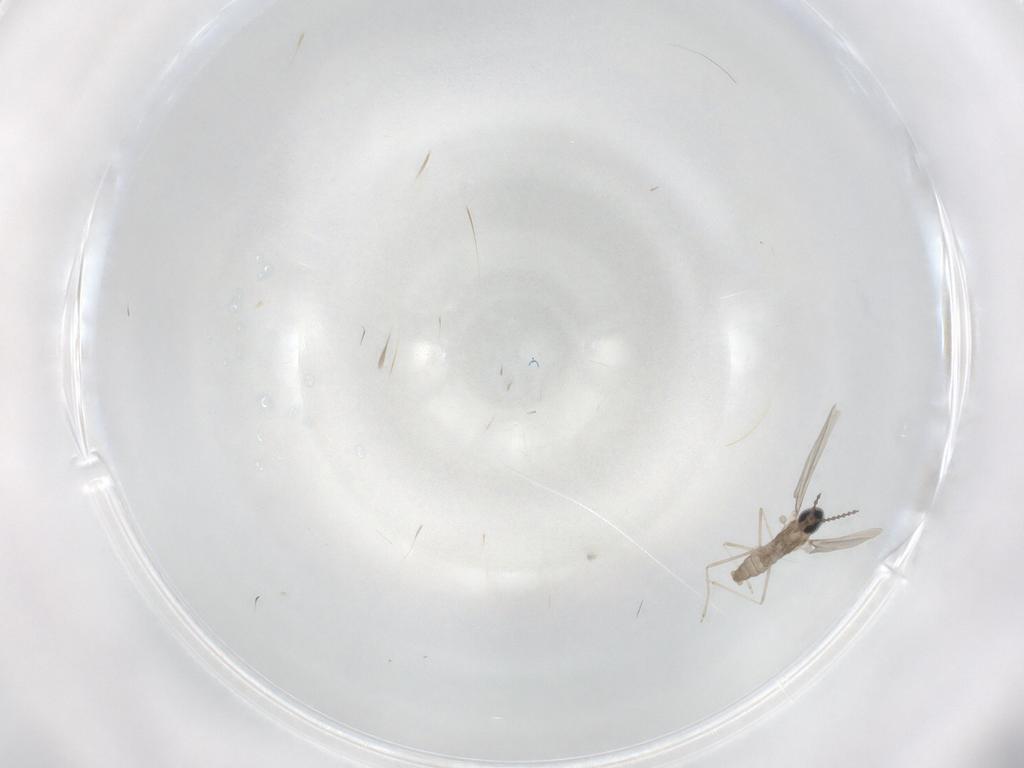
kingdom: Animalia
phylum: Arthropoda
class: Insecta
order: Diptera
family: Cecidomyiidae
